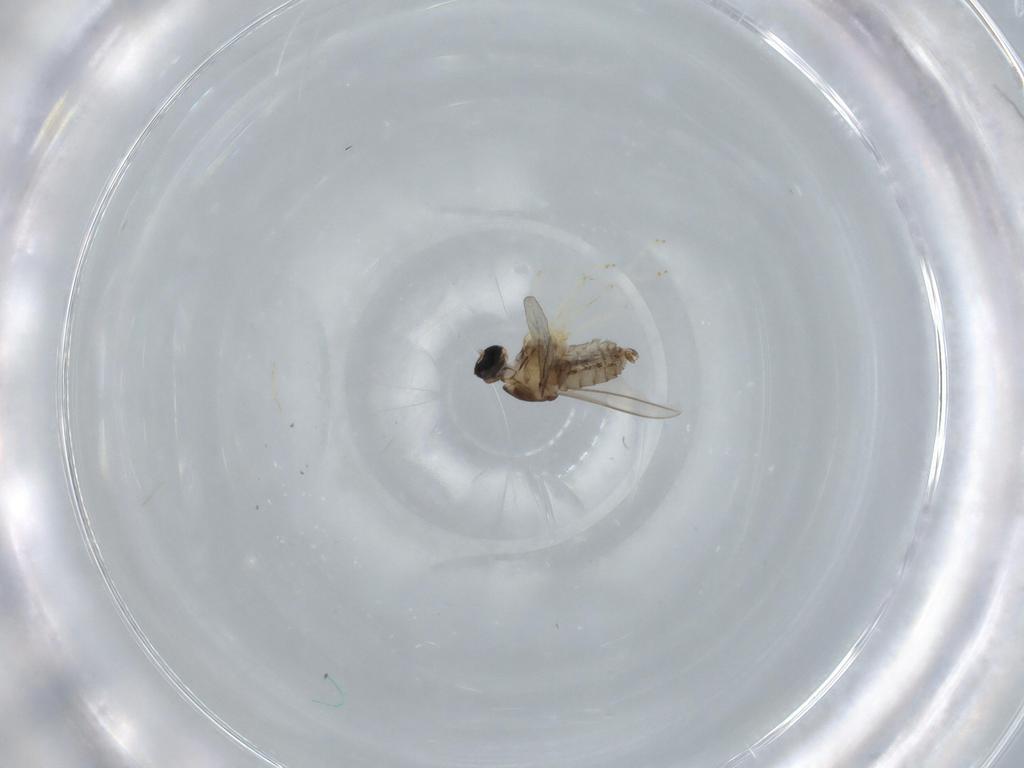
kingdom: Animalia
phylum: Arthropoda
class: Insecta
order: Diptera
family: Cecidomyiidae
